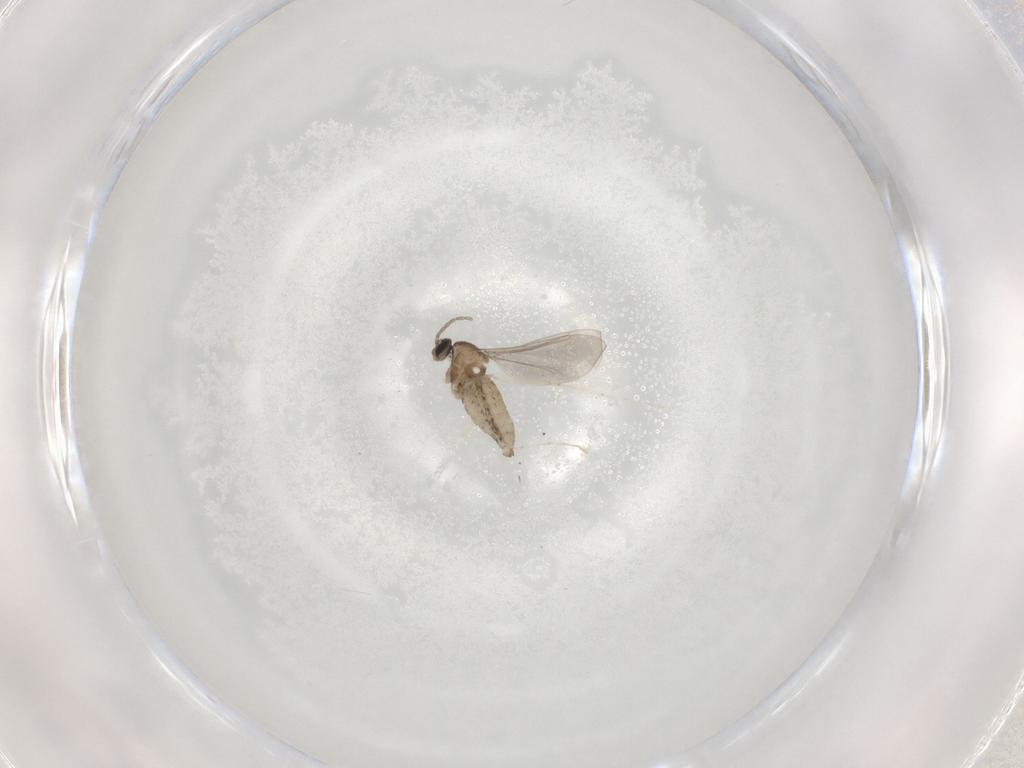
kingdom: Animalia
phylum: Arthropoda
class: Insecta
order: Diptera
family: Cecidomyiidae
